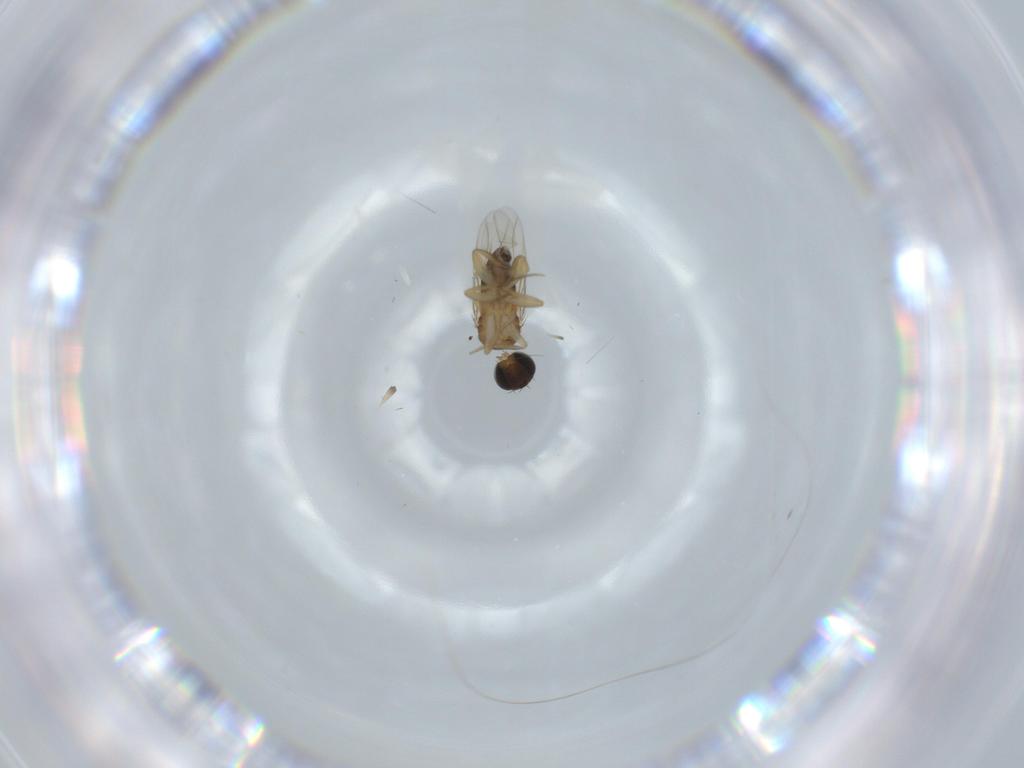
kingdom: Animalia
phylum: Arthropoda
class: Insecta
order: Diptera
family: Phoridae
